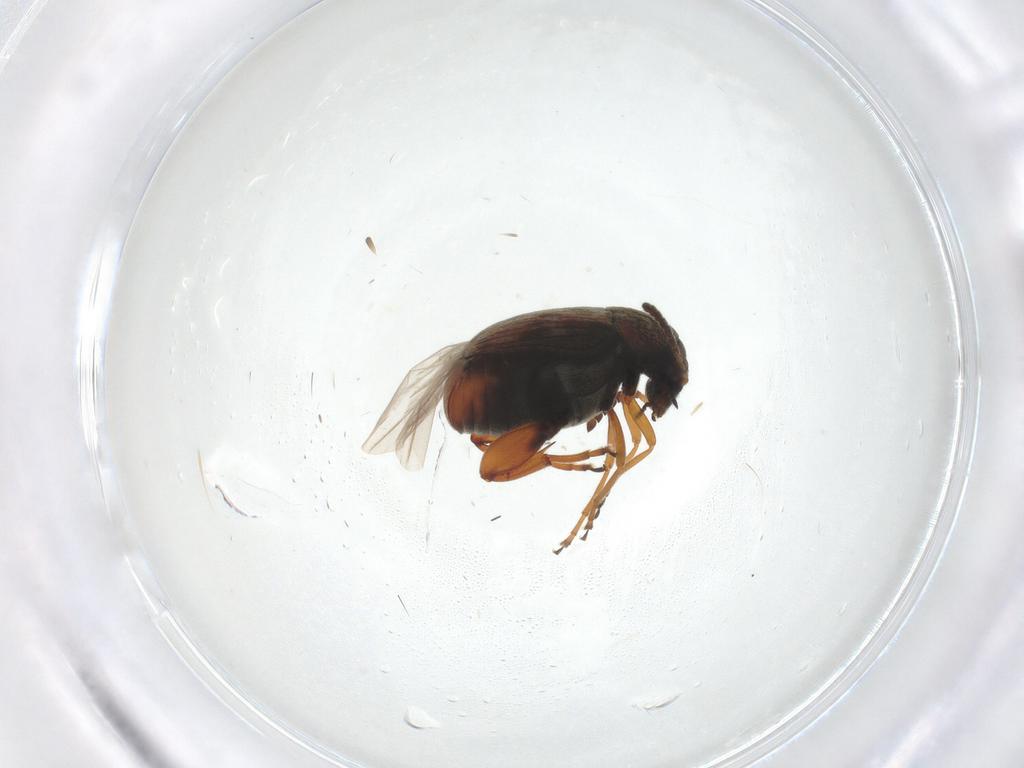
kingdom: Animalia
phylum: Arthropoda
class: Insecta
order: Coleoptera
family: Chrysomelidae
